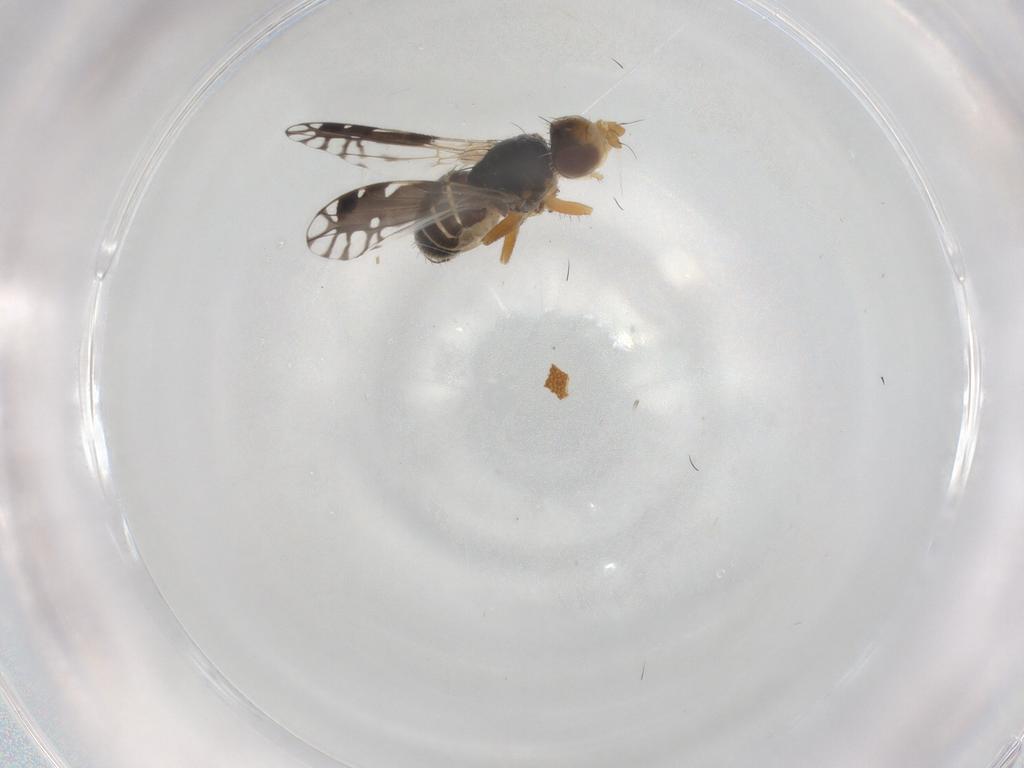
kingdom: Animalia
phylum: Arthropoda
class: Insecta
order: Diptera
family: Tephritidae
